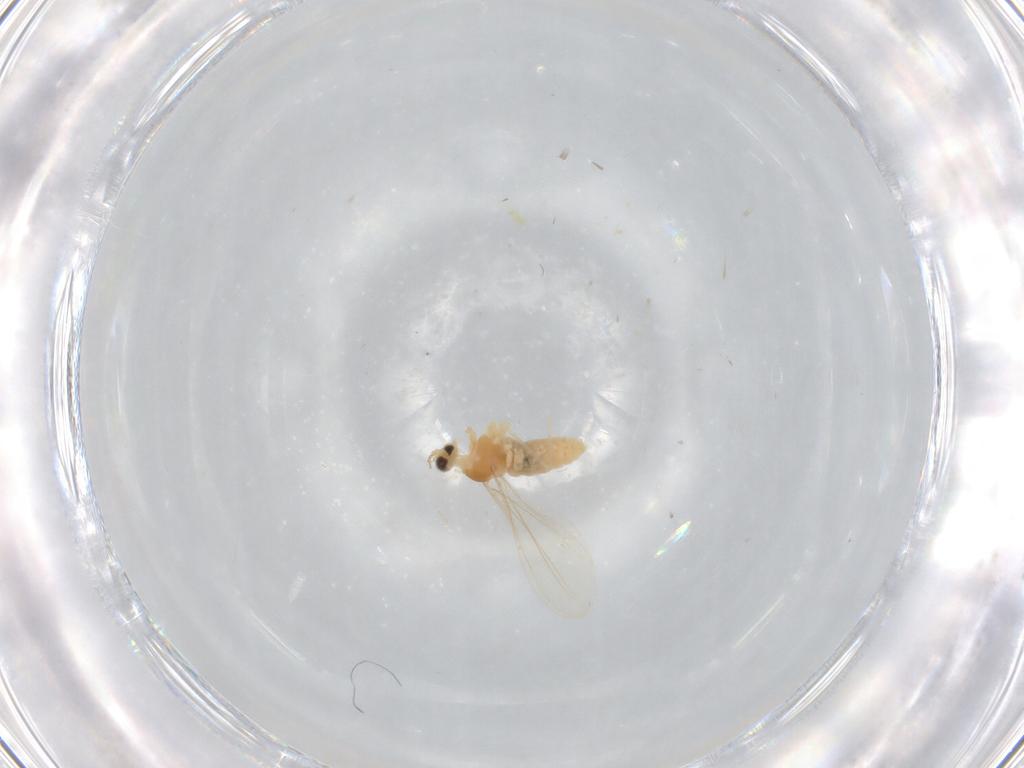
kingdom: Animalia
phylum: Arthropoda
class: Insecta
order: Diptera
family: Cecidomyiidae
